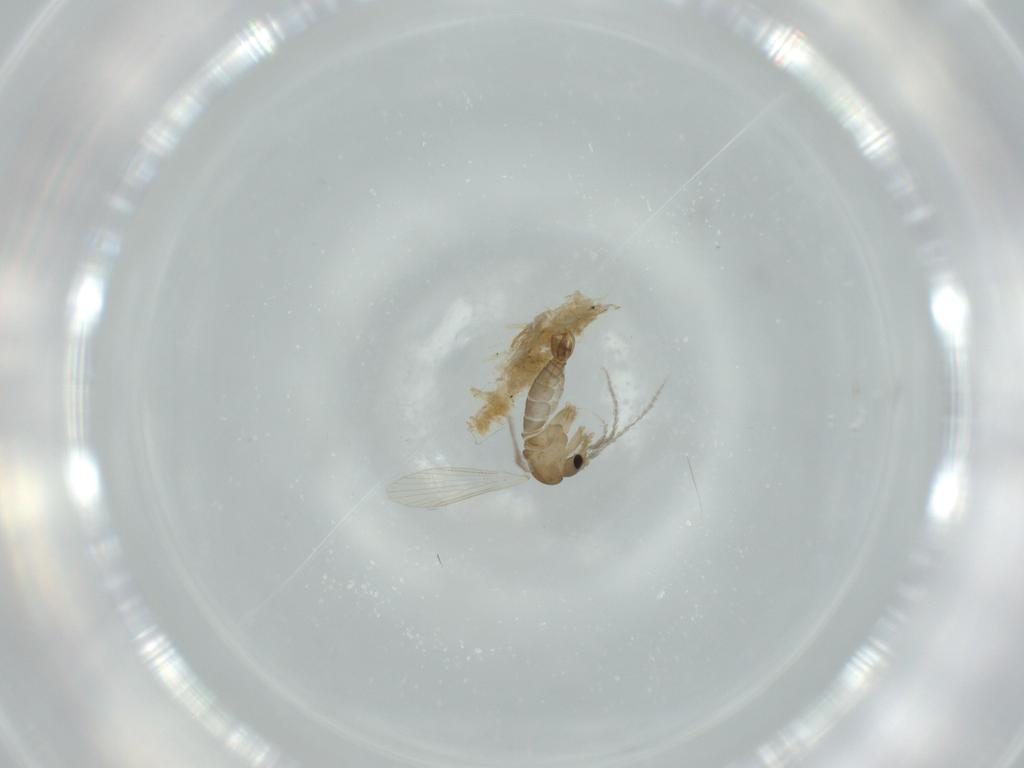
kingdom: Animalia
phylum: Arthropoda
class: Insecta
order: Diptera
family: Psychodidae
